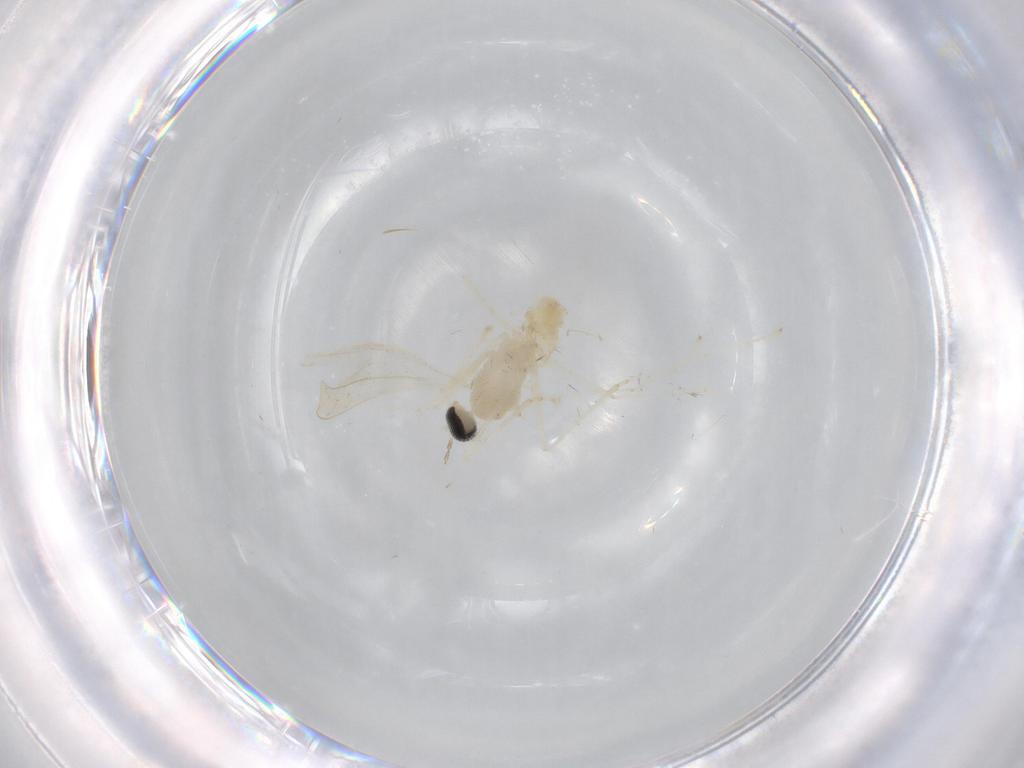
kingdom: Animalia
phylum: Arthropoda
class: Insecta
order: Diptera
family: Cecidomyiidae
